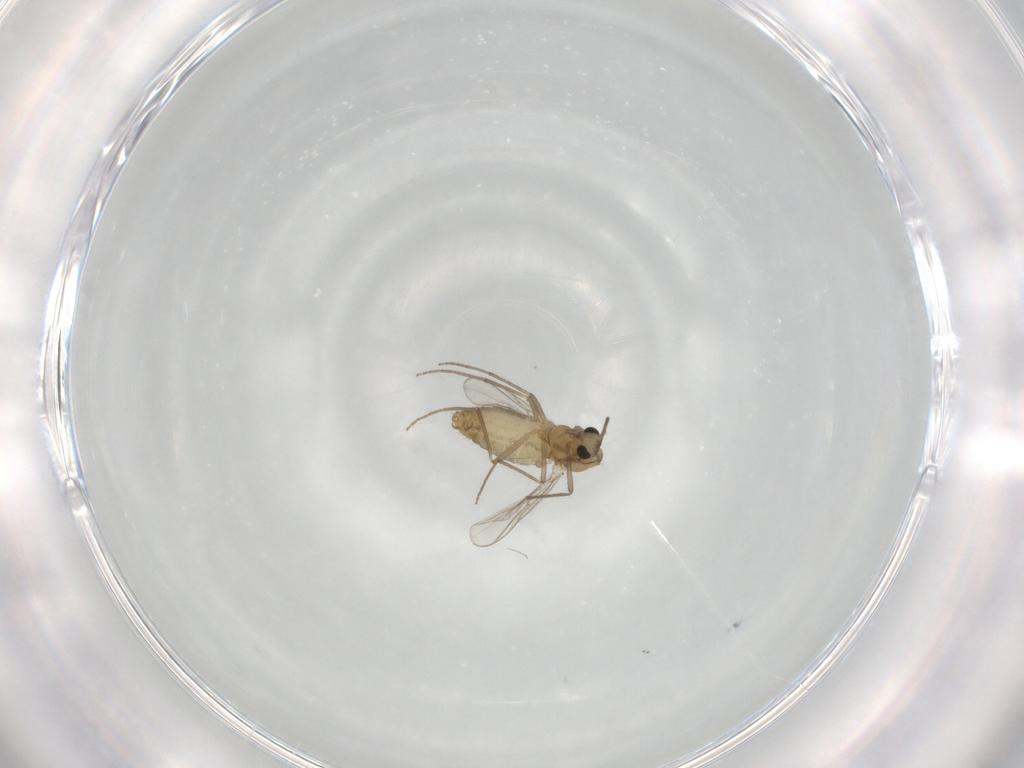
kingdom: Animalia
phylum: Arthropoda
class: Insecta
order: Diptera
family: Chironomidae
